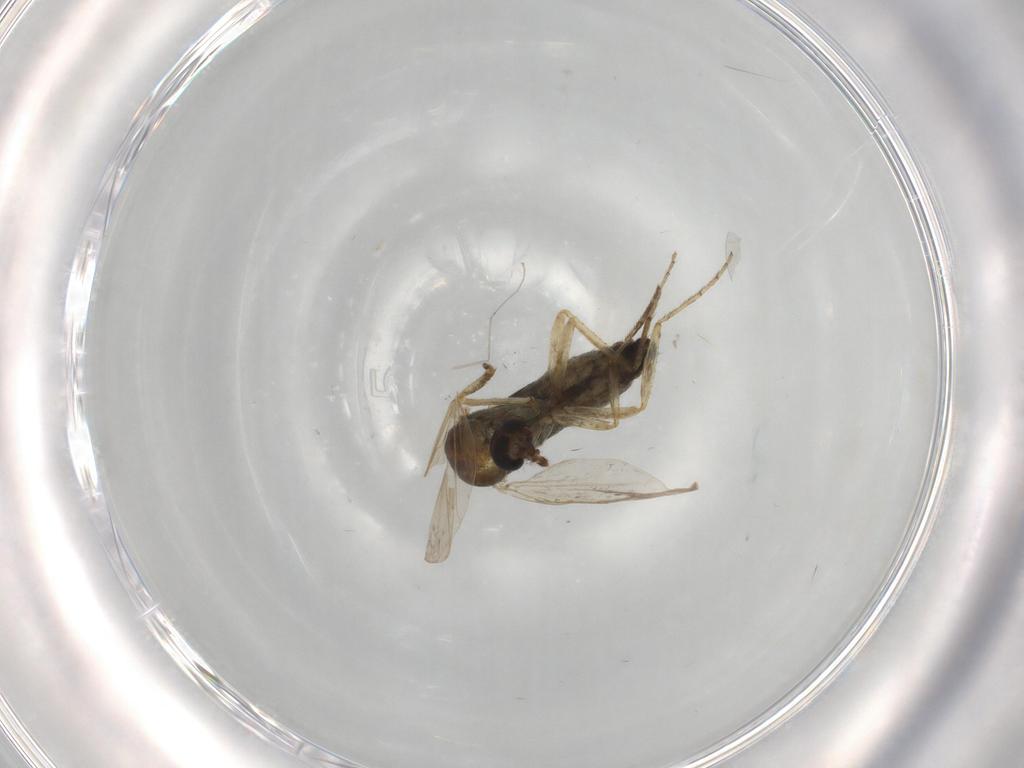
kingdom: Animalia
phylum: Arthropoda
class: Insecta
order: Diptera
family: Ceratopogonidae
